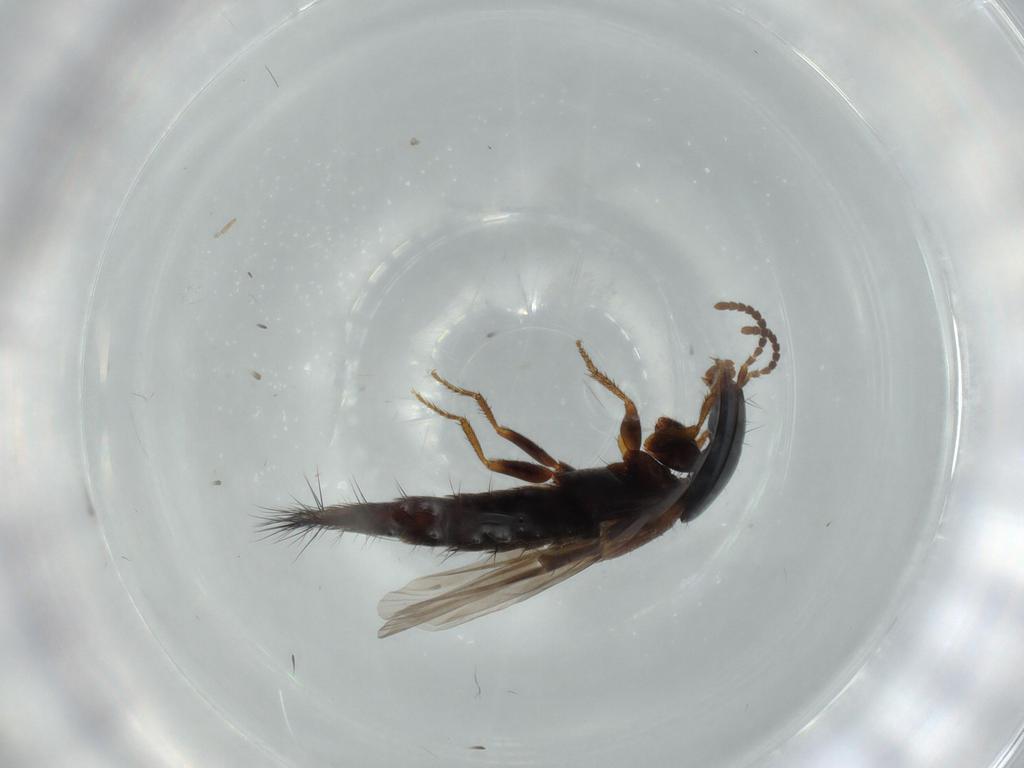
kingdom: Animalia
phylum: Arthropoda
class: Insecta
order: Coleoptera
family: Staphylinidae
